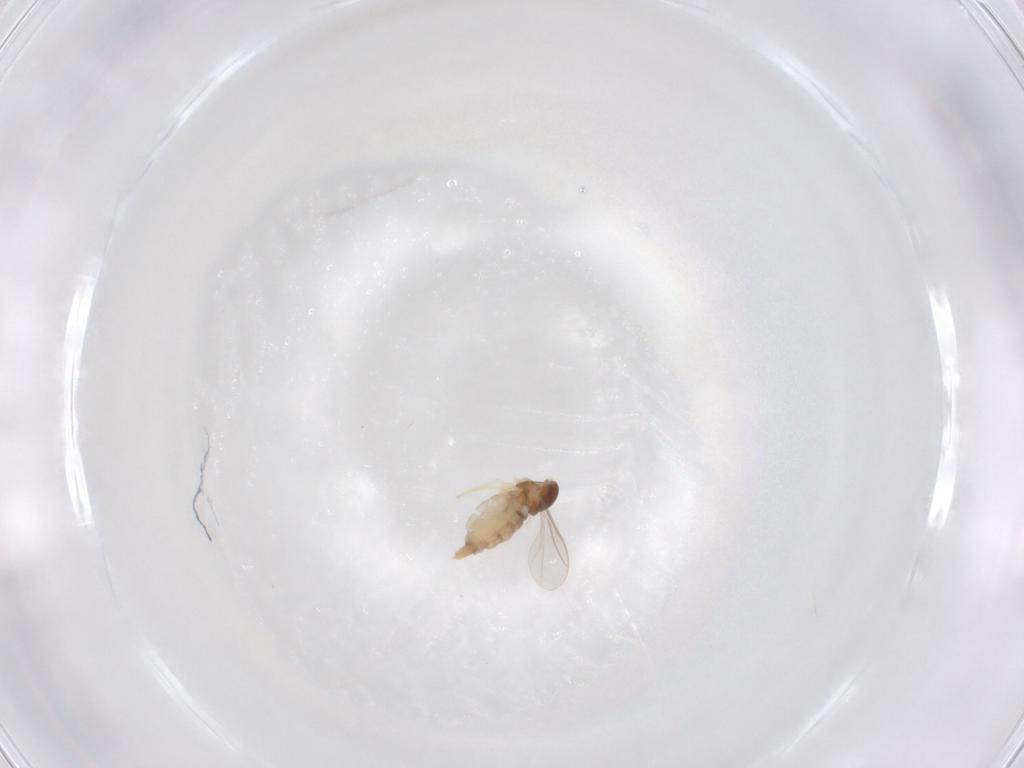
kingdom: Animalia
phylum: Arthropoda
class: Insecta
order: Diptera
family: Cecidomyiidae
